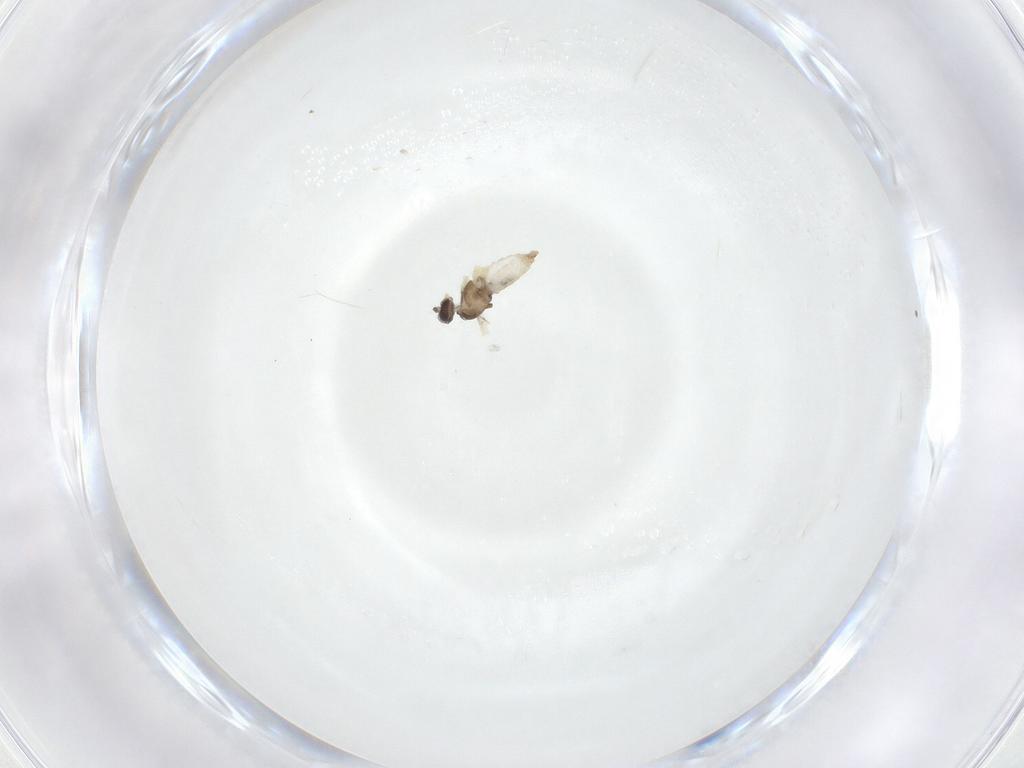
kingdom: Animalia
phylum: Arthropoda
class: Insecta
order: Diptera
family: Cecidomyiidae
